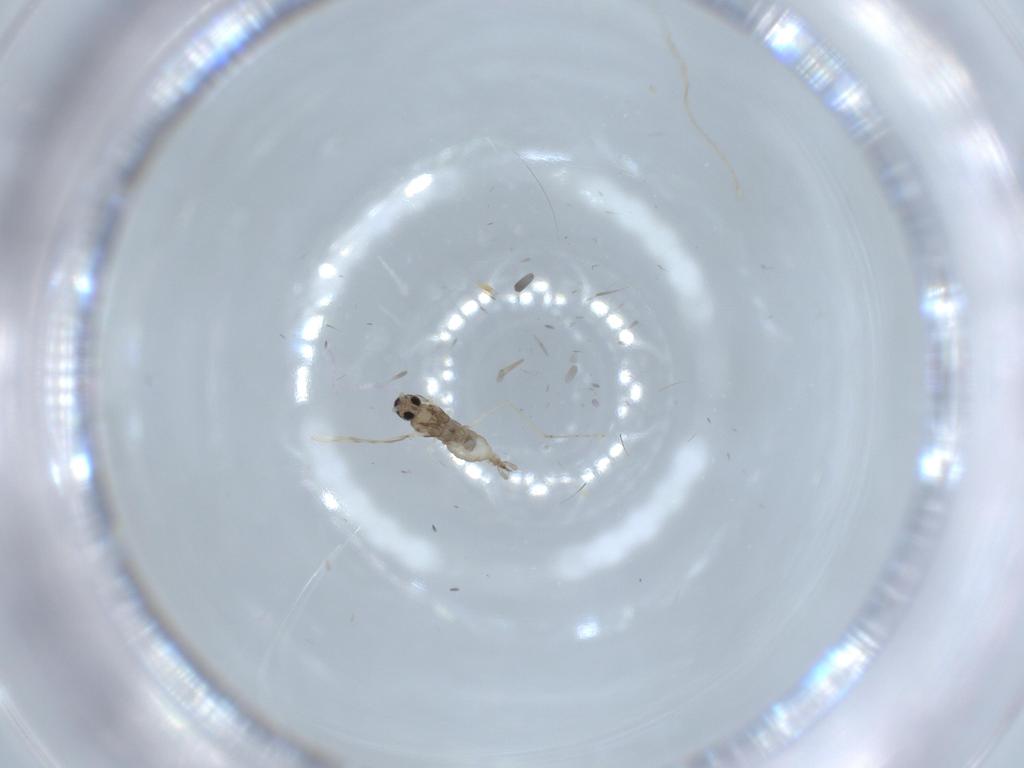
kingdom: Animalia
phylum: Arthropoda
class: Insecta
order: Diptera
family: Cecidomyiidae
